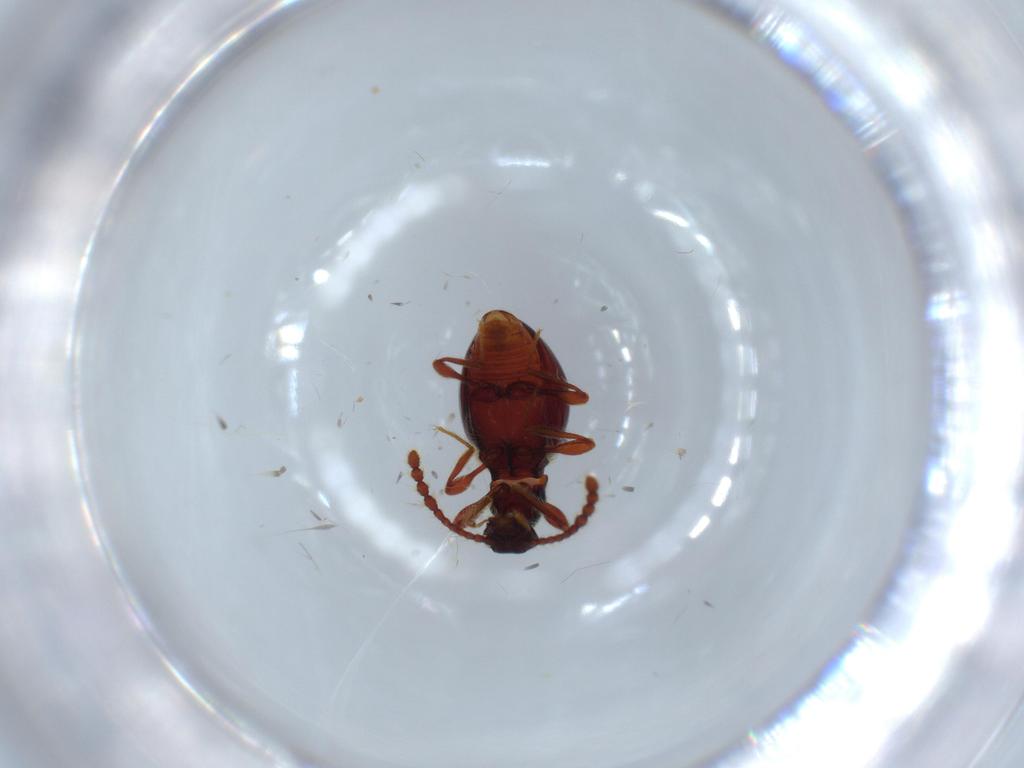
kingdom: Animalia
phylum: Arthropoda
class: Insecta
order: Coleoptera
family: Staphylinidae
